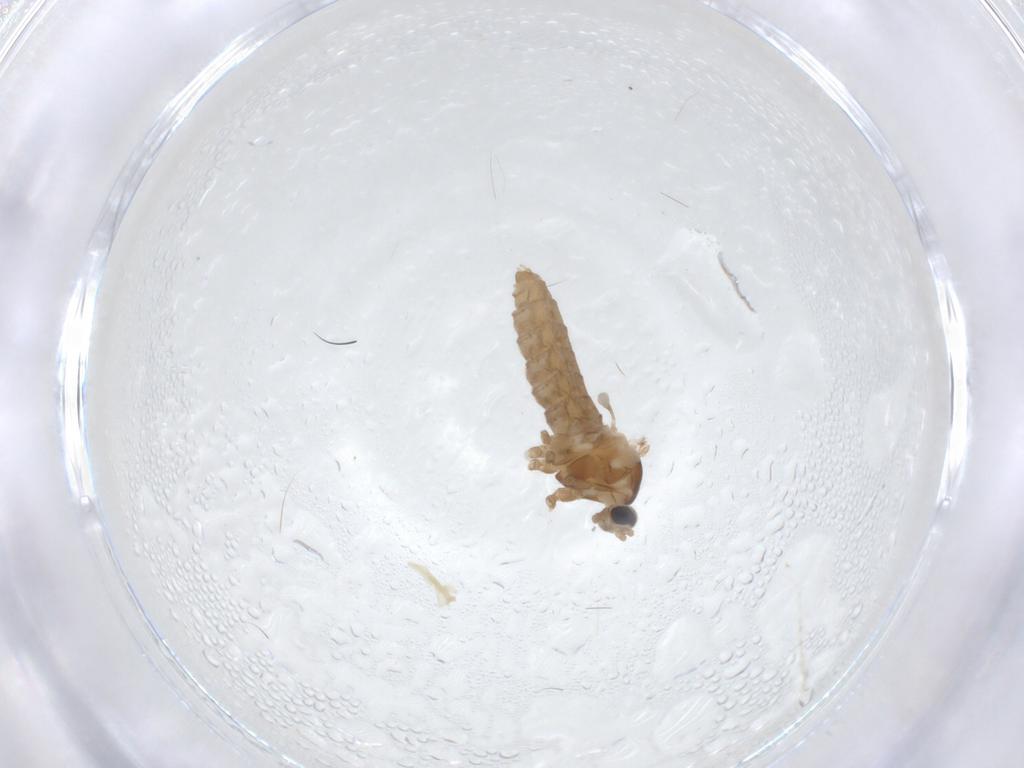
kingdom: Animalia
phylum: Arthropoda
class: Insecta
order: Diptera
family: Cecidomyiidae
